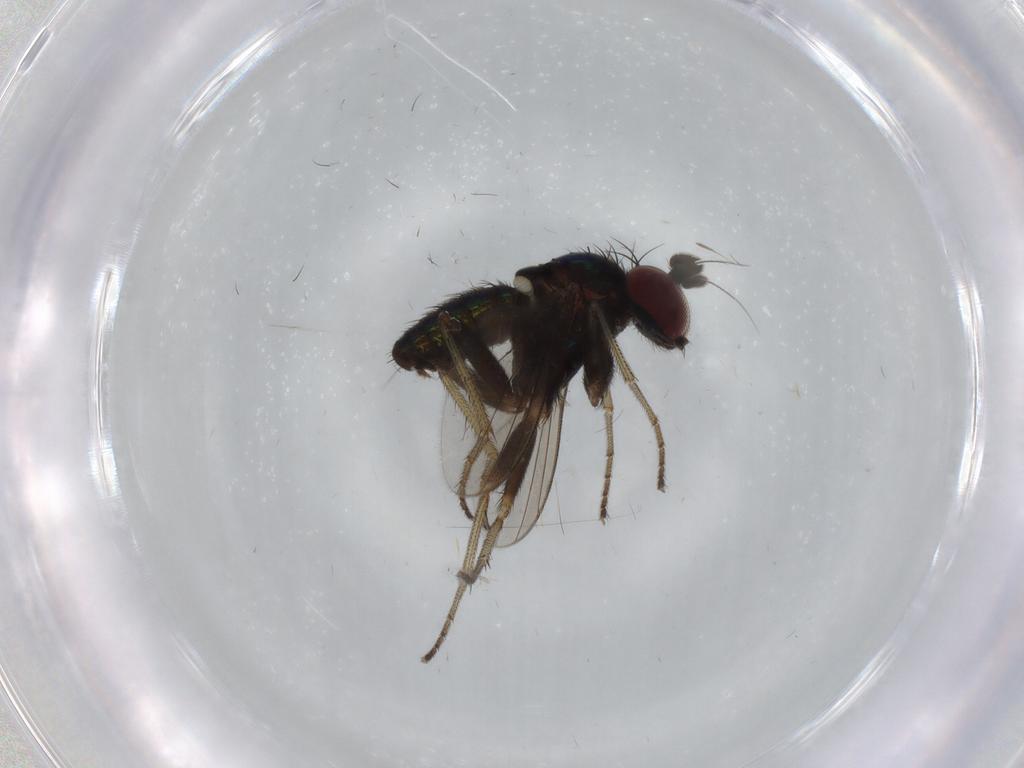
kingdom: Animalia
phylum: Arthropoda
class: Insecta
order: Diptera
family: Dolichopodidae
